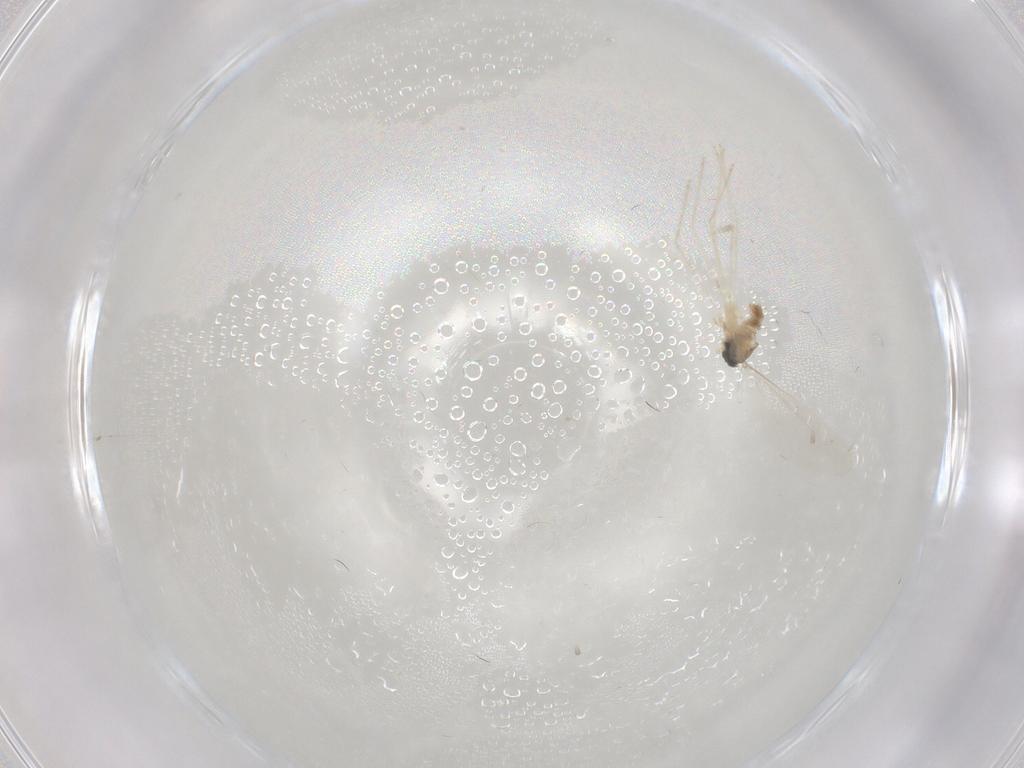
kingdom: Animalia
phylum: Arthropoda
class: Insecta
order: Diptera
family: Cecidomyiidae
